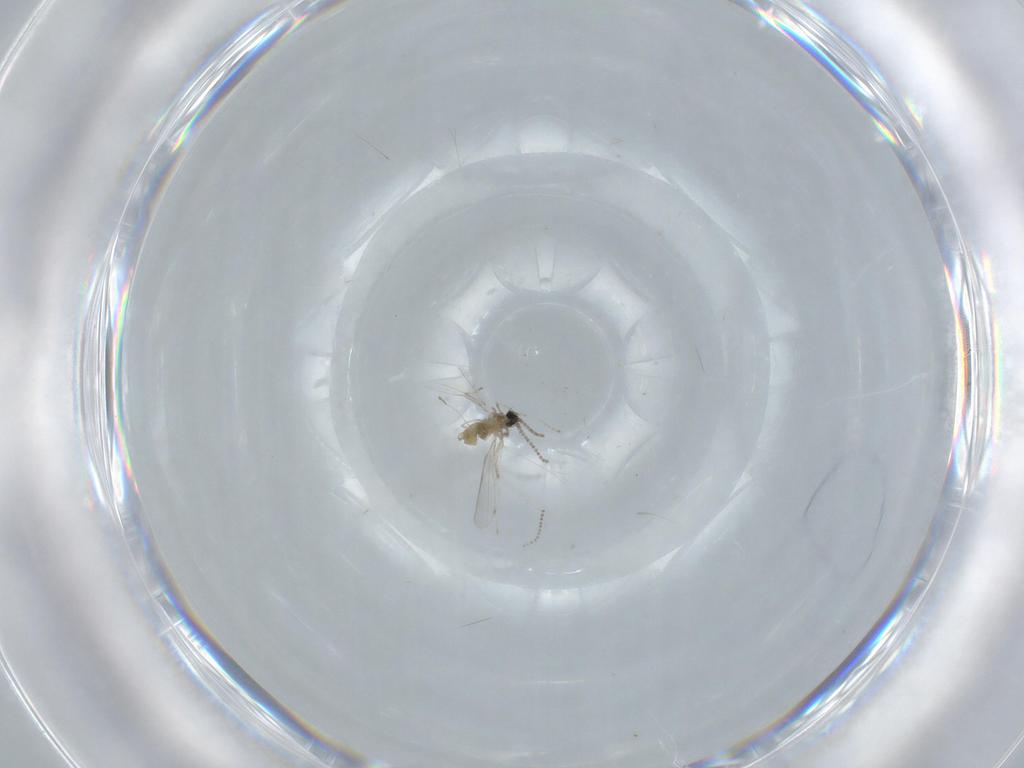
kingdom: Animalia
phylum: Arthropoda
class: Insecta
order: Diptera
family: Cecidomyiidae
